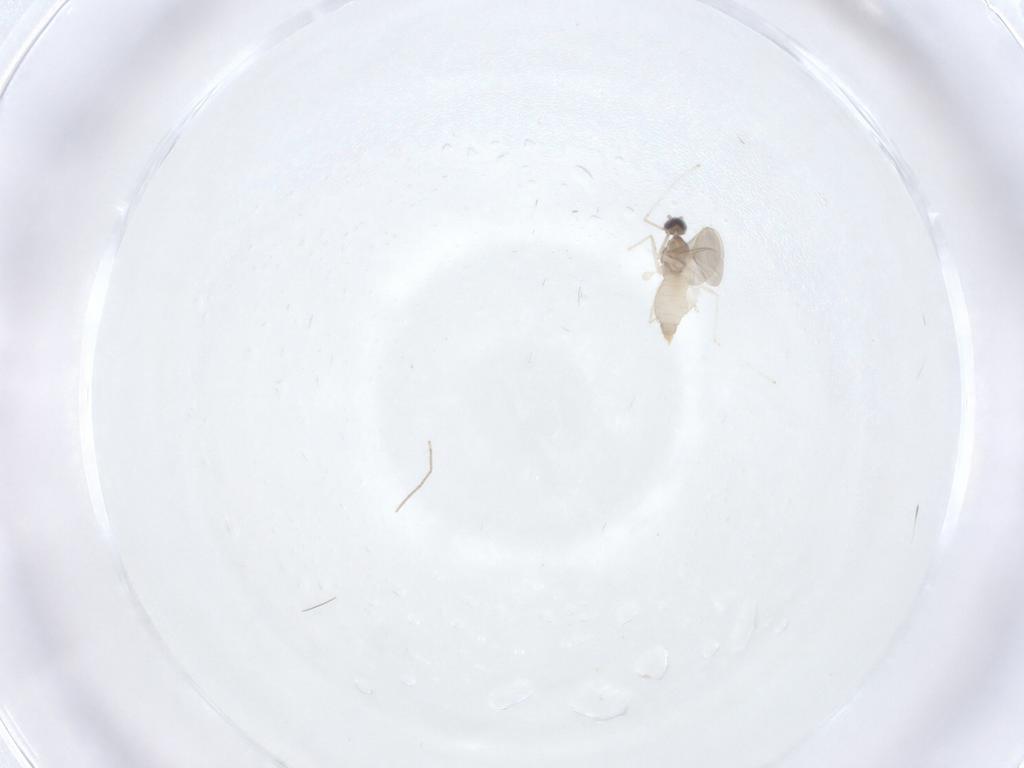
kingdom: Animalia
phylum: Arthropoda
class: Insecta
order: Diptera
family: Cecidomyiidae
